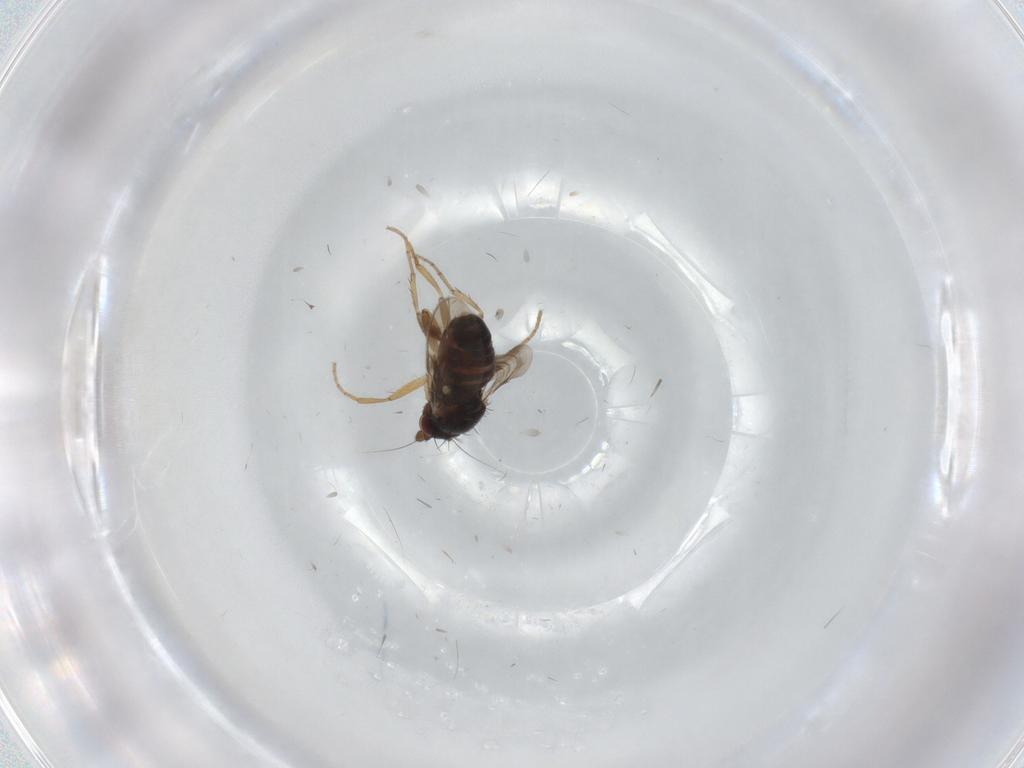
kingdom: Animalia
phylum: Arthropoda
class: Insecta
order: Diptera
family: Sphaeroceridae
